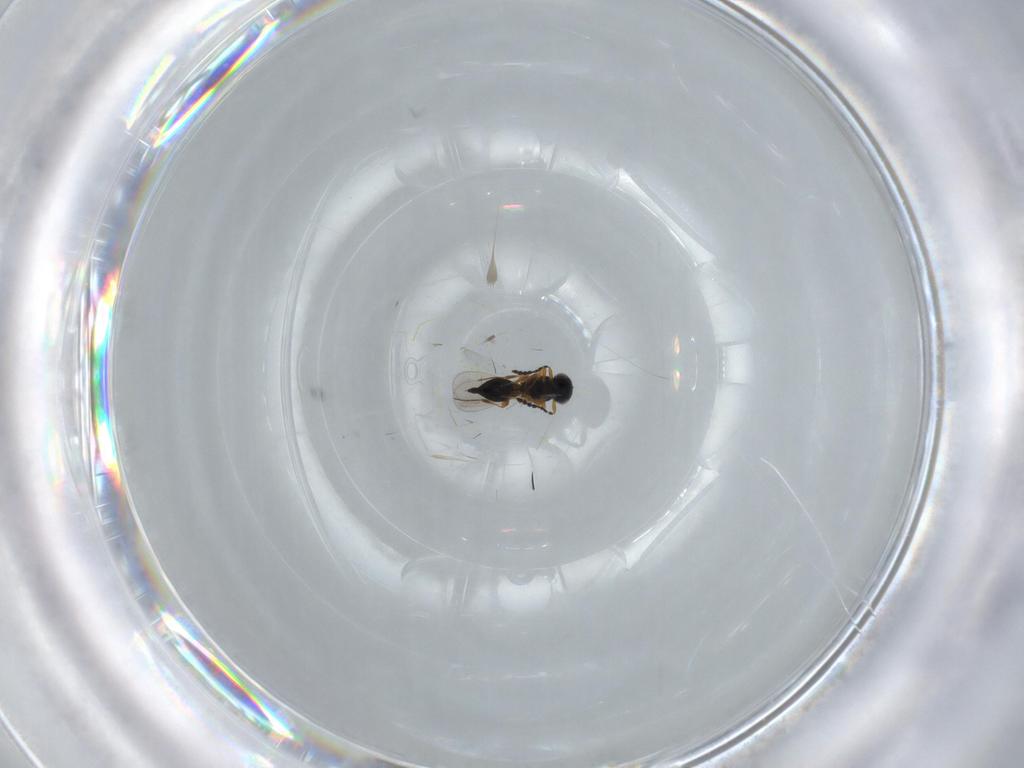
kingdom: Animalia
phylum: Arthropoda
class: Insecta
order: Hymenoptera
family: Platygastridae
